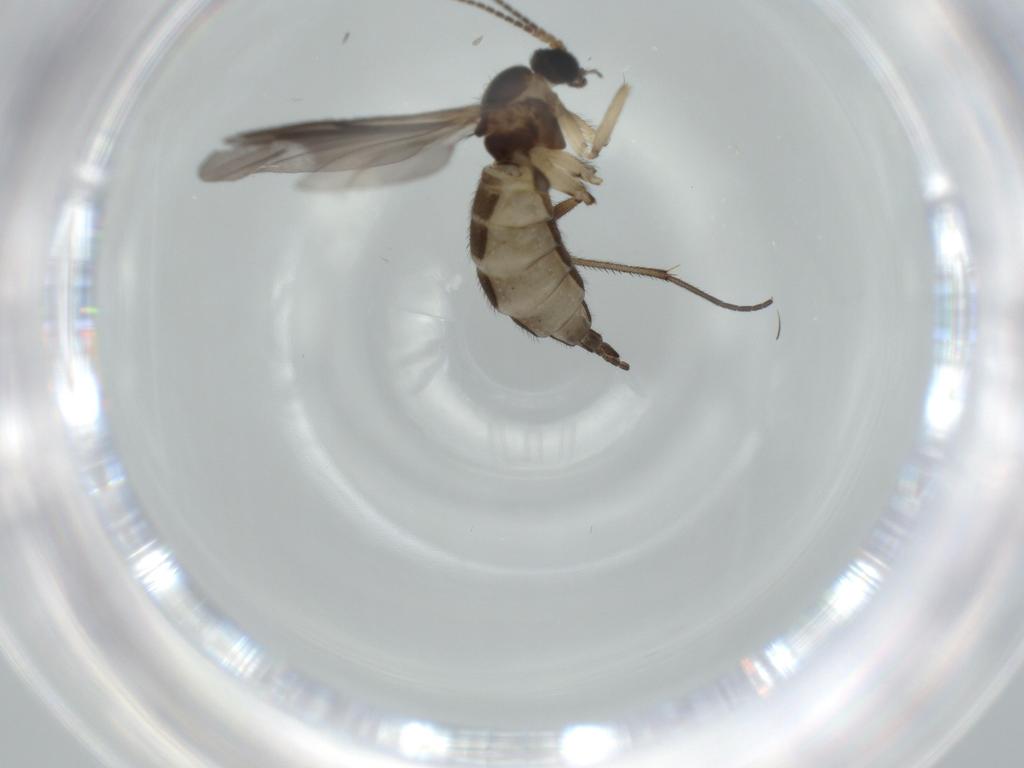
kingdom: Animalia
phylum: Arthropoda
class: Insecta
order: Diptera
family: Sciaridae
